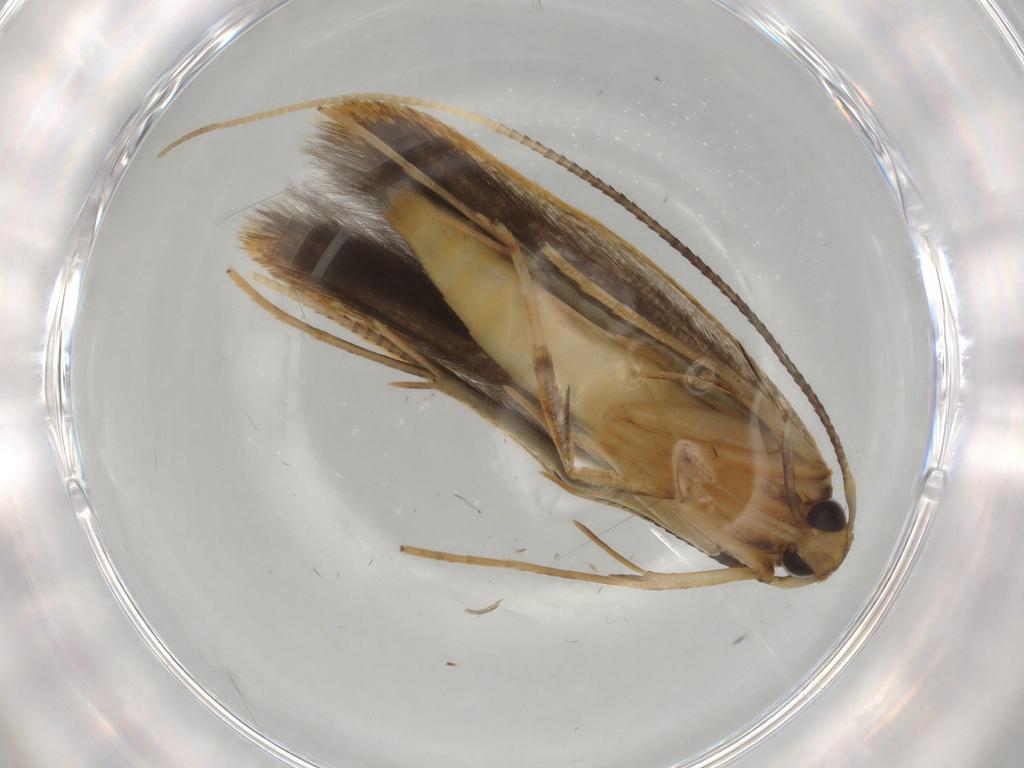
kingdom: Animalia
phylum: Arthropoda
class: Insecta
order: Lepidoptera
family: Pterolonchidae
